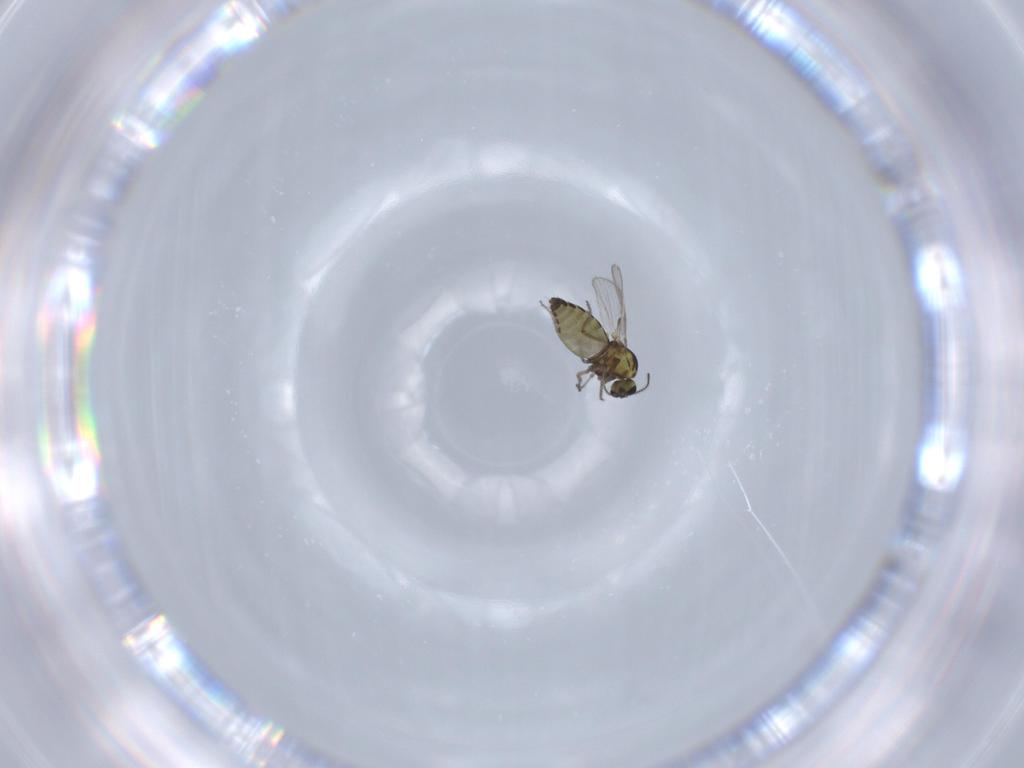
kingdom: Animalia
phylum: Arthropoda
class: Insecta
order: Diptera
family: Ceratopogonidae
